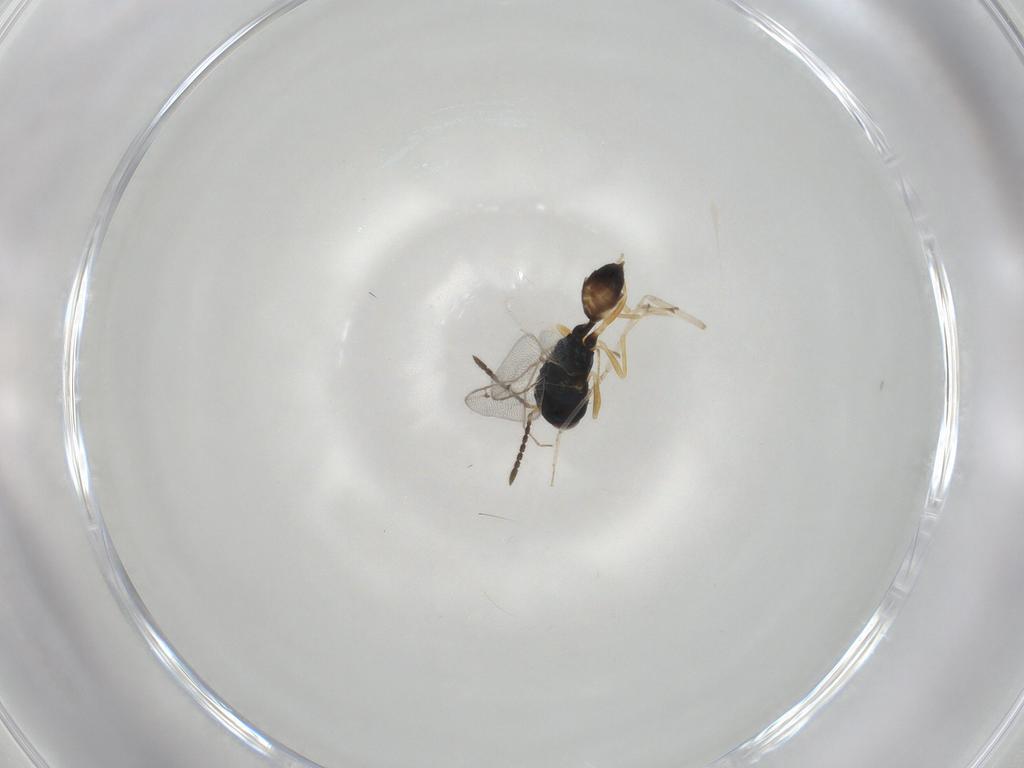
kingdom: Animalia
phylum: Arthropoda
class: Insecta
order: Hymenoptera
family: Pteromalidae
